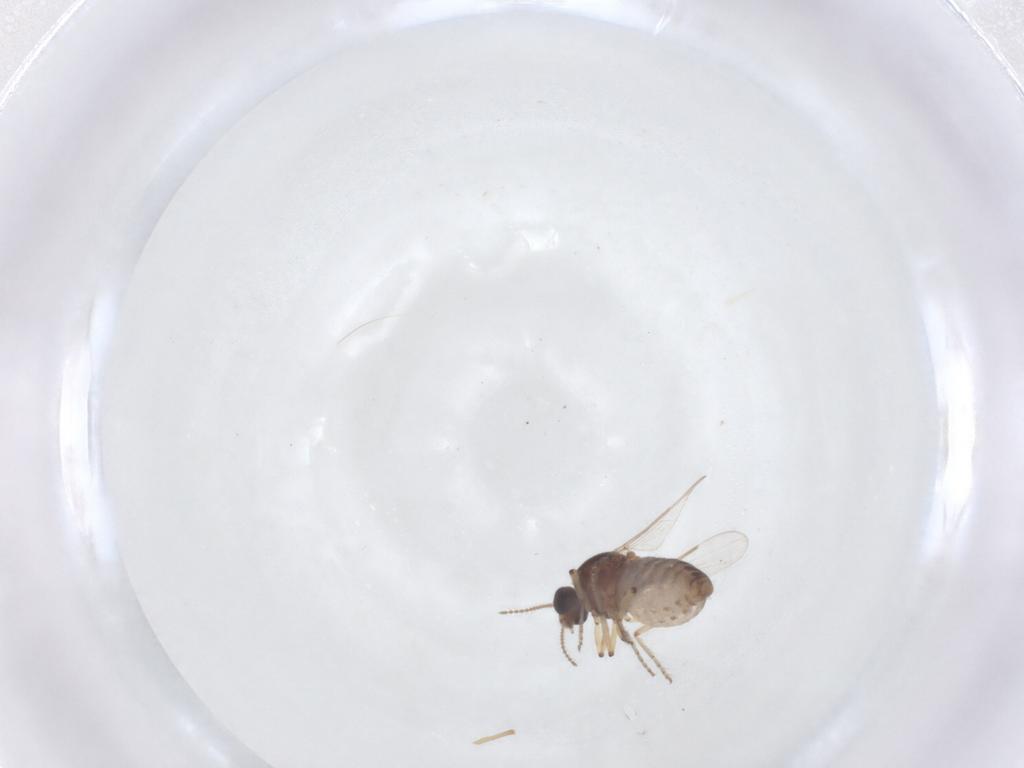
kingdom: Animalia
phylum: Arthropoda
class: Insecta
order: Diptera
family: Ceratopogonidae
